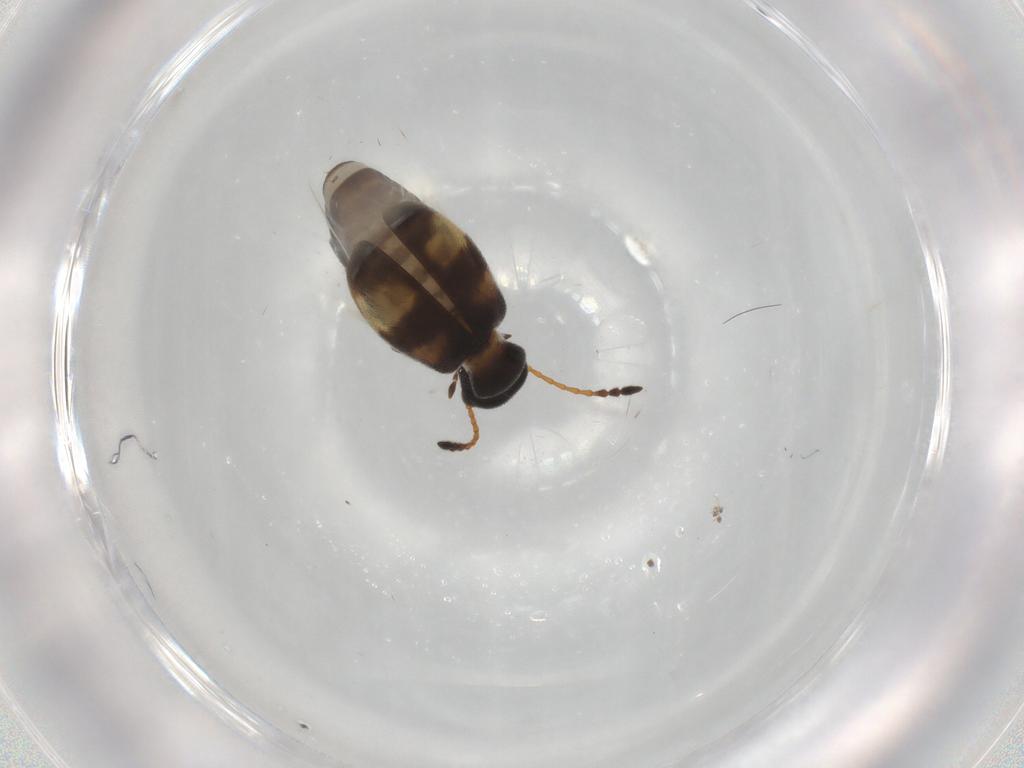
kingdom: Animalia
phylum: Arthropoda
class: Insecta
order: Coleoptera
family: Anthicidae
